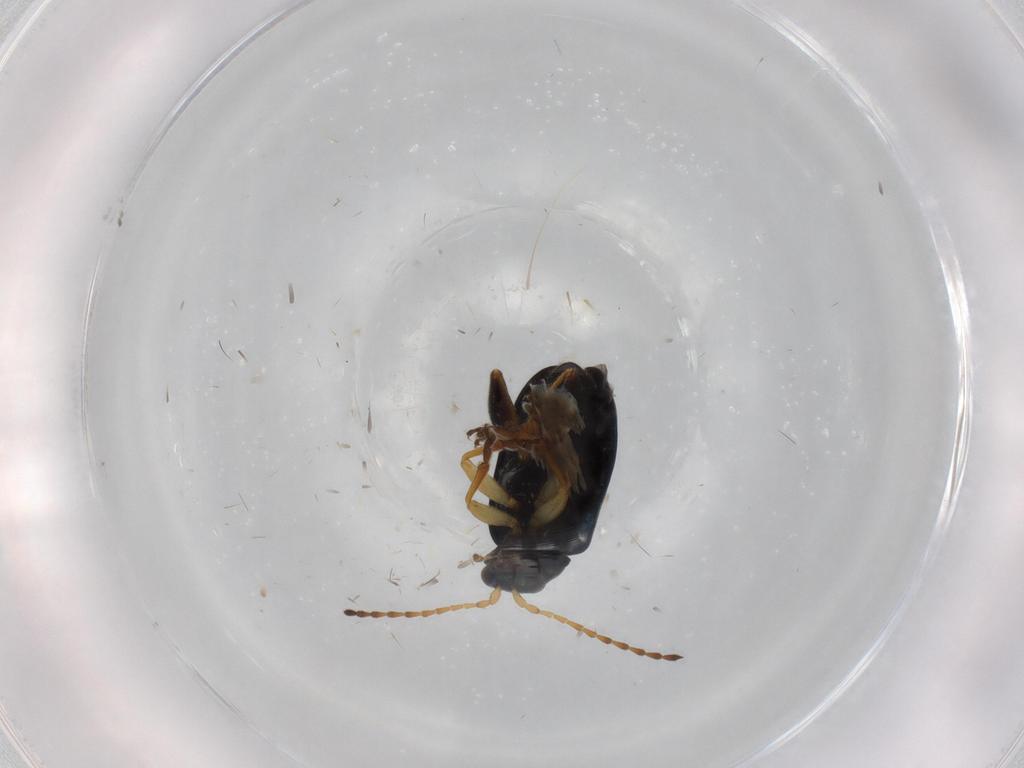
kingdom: Animalia
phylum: Arthropoda
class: Insecta
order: Coleoptera
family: Chrysomelidae
